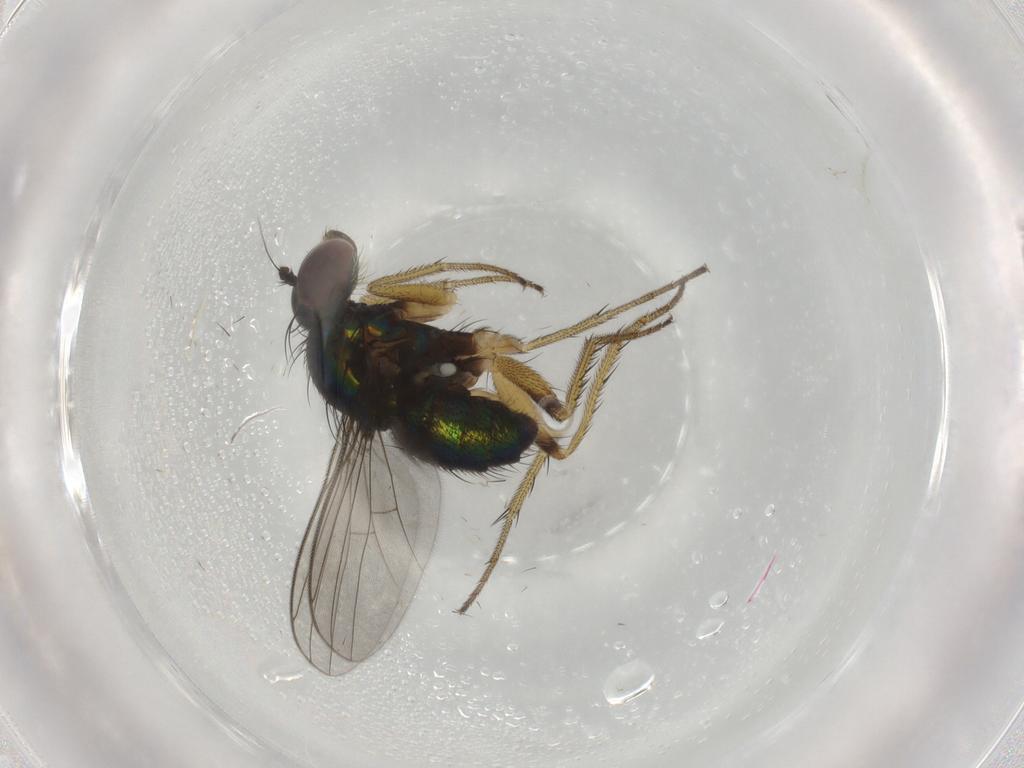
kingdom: Animalia
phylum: Arthropoda
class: Insecta
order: Diptera
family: Dolichopodidae
